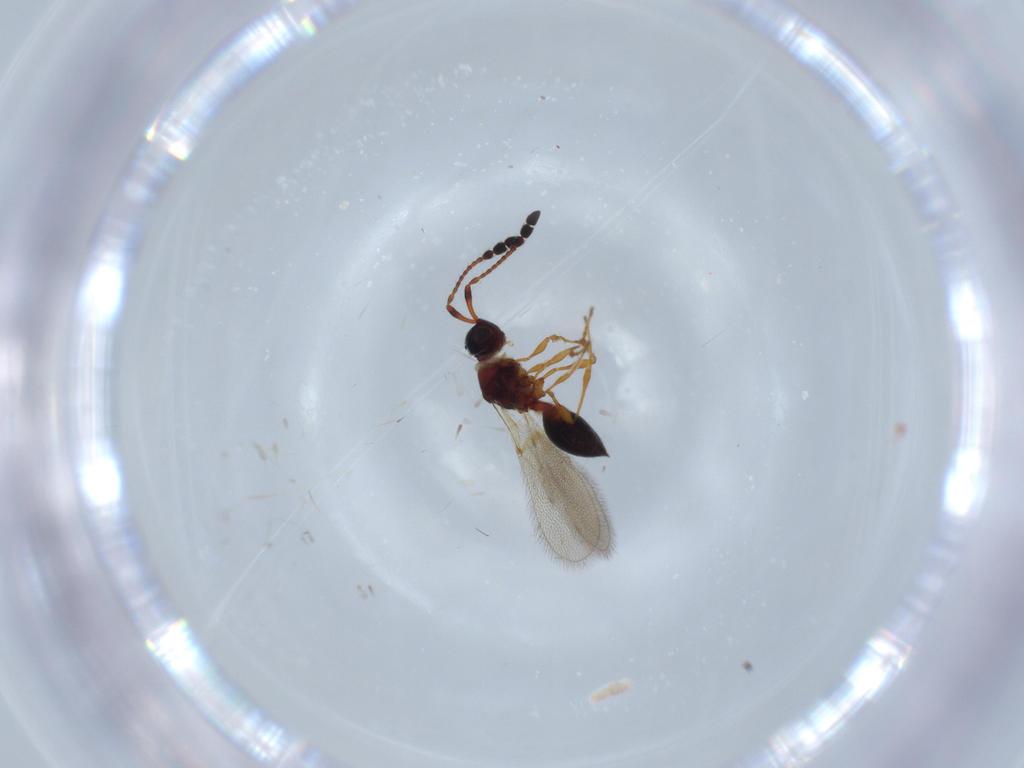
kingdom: Animalia
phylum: Arthropoda
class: Insecta
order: Hymenoptera
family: Diapriidae
